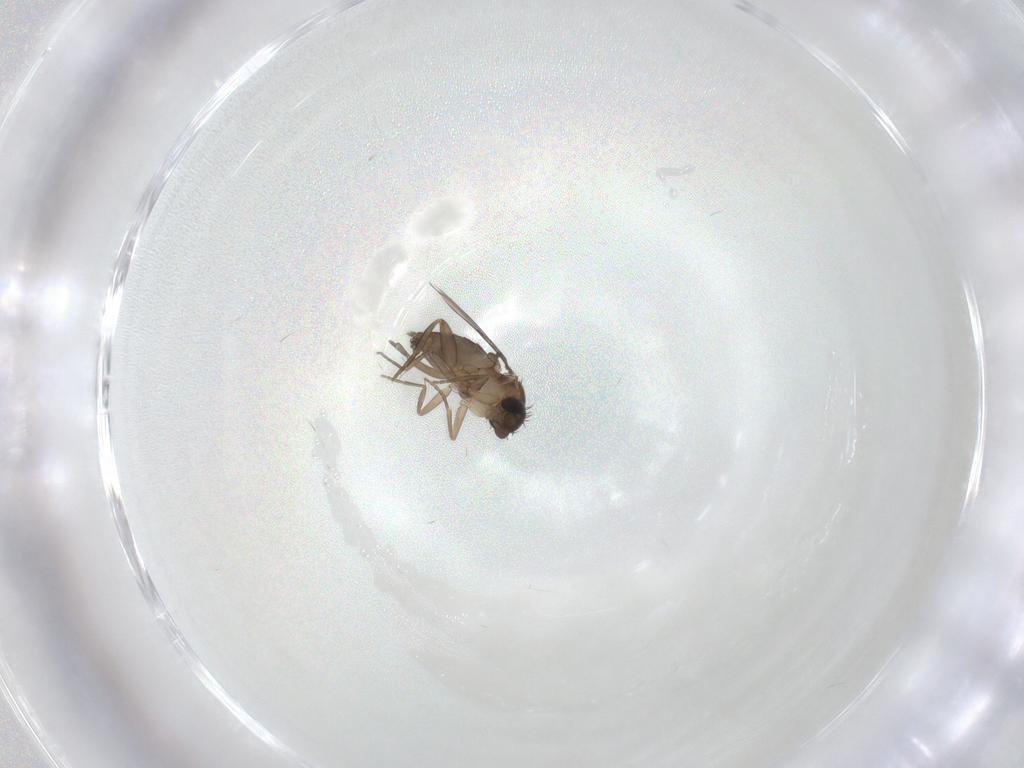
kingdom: Animalia
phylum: Arthropoda
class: Insecta
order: Diptera
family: Phoridae
